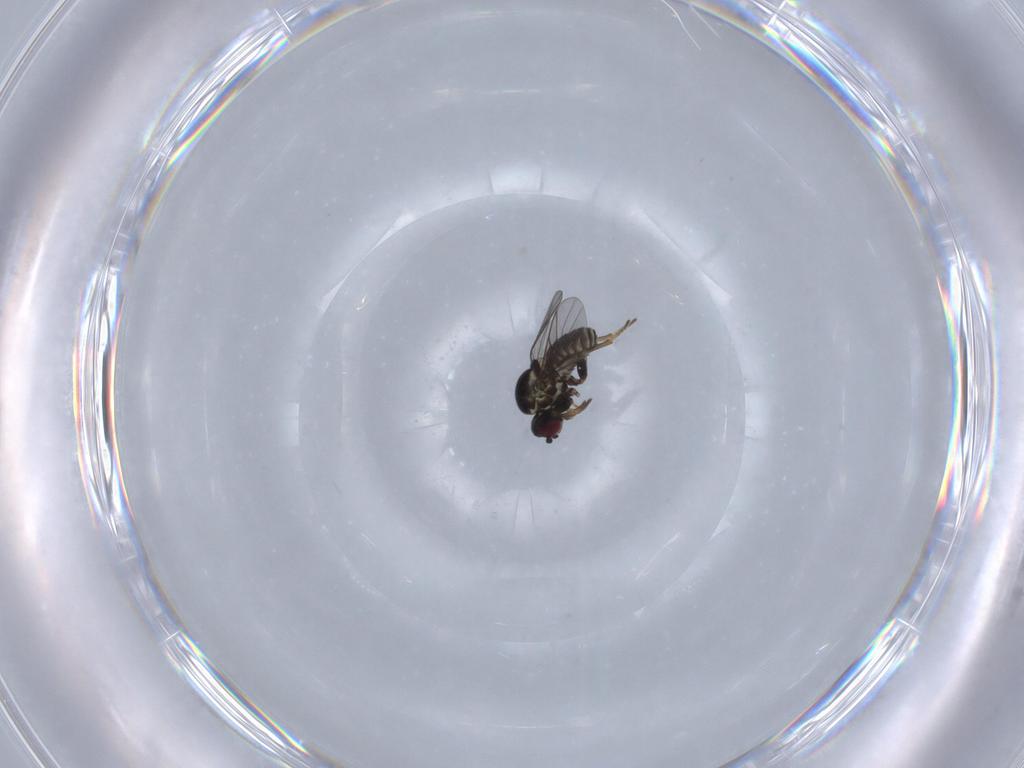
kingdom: Animalia
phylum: Arthropoda
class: Insecta
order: Diptera
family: Bombyliidae
